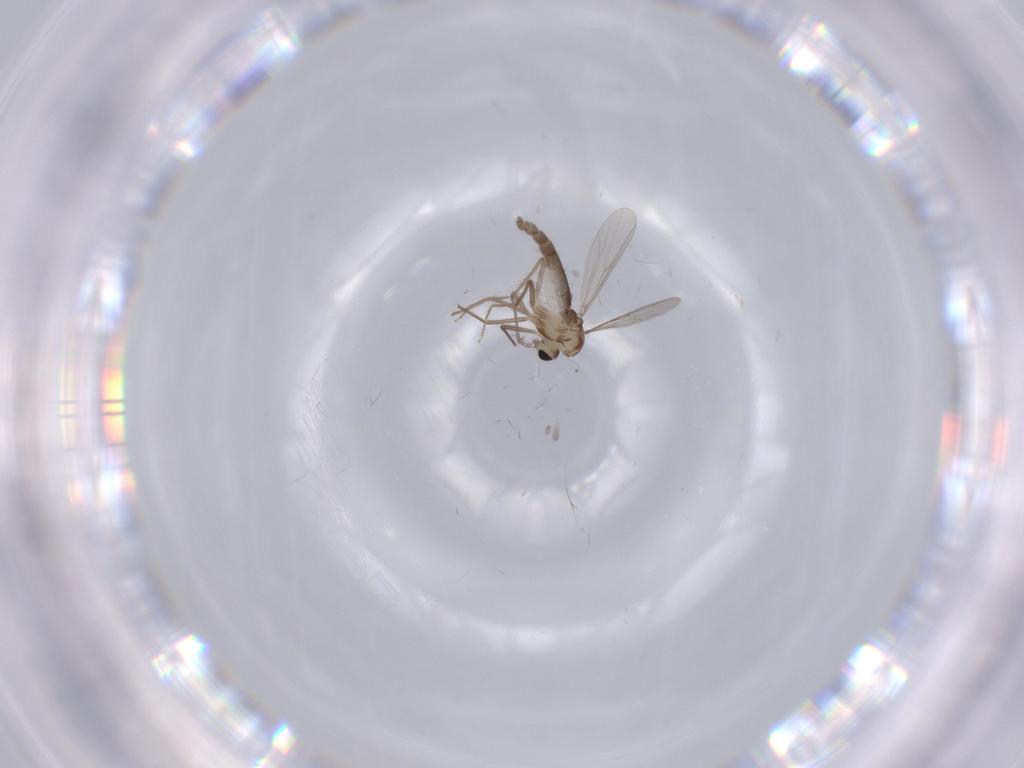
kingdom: Animalia
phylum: Arthropoda
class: Insecta
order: Diptera
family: Chironomidae
